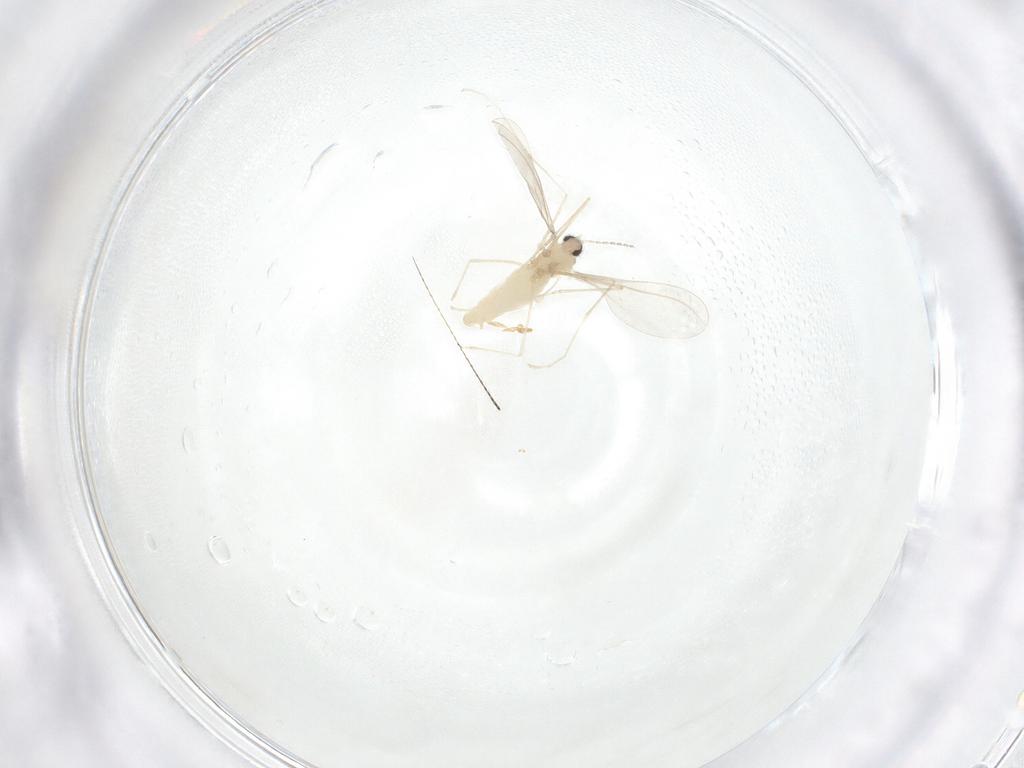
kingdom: Animalia
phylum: Arthropoda
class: Insecta
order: Diptera
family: Cecidomyiidae
